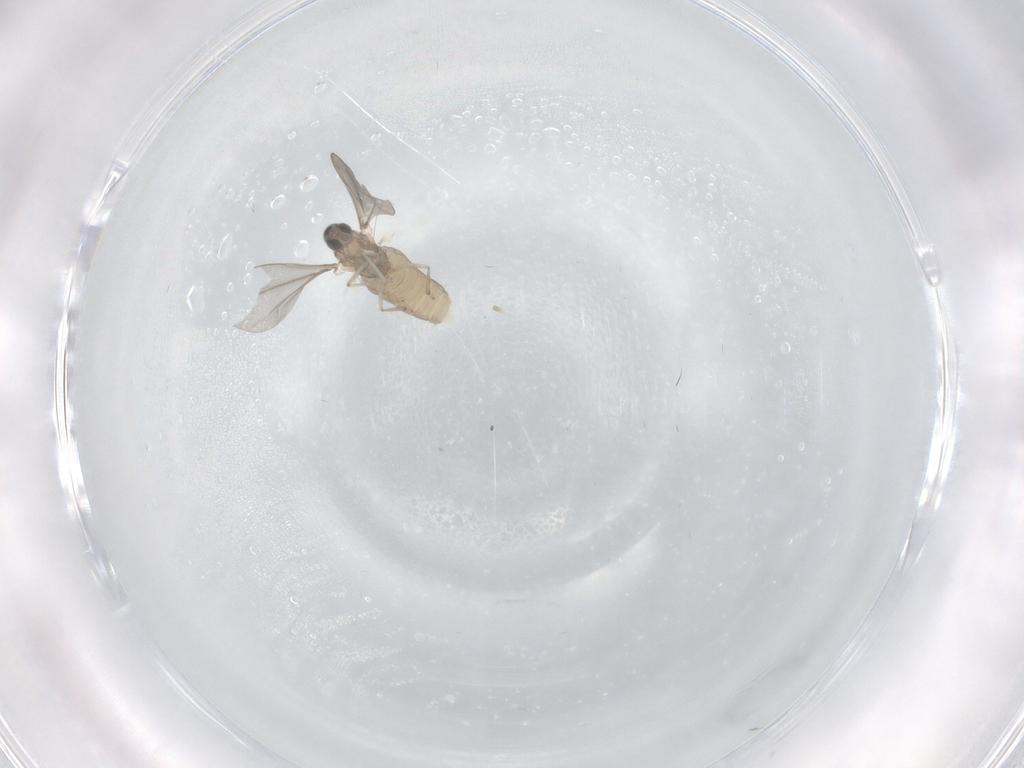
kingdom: Animalia
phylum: Arthropoda
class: Insecta
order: Diptera
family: Cecidomyiidae
